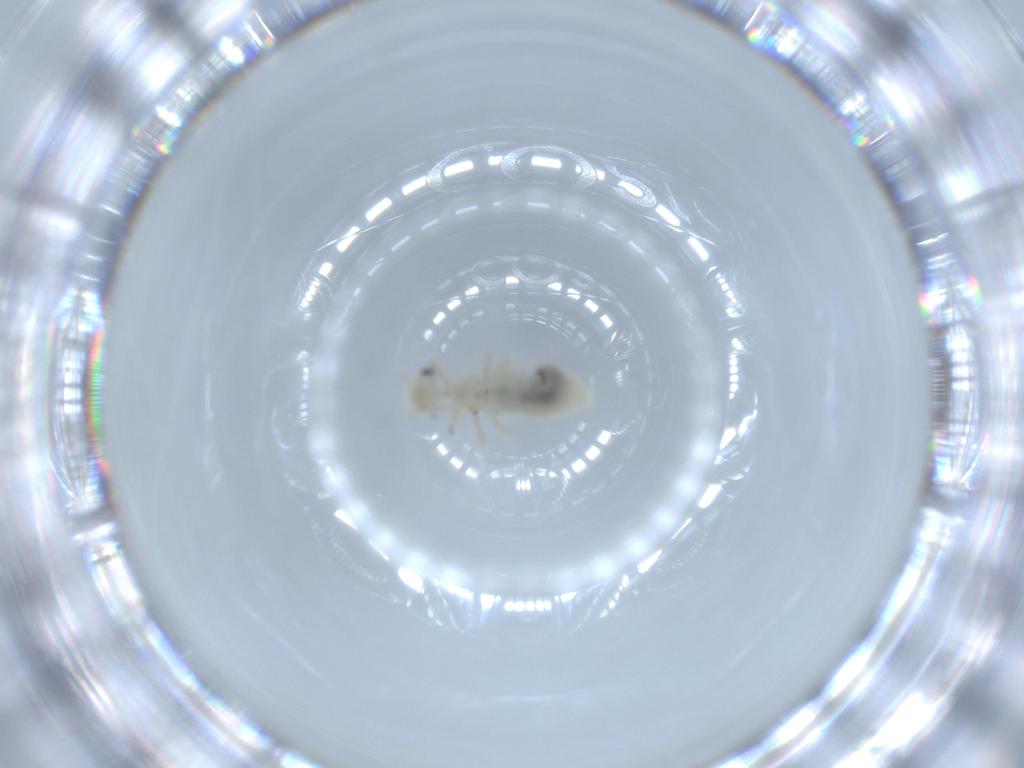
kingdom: Animalia
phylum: Arthropoda
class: Insecta
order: Psocodea
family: Caeciliusidae
